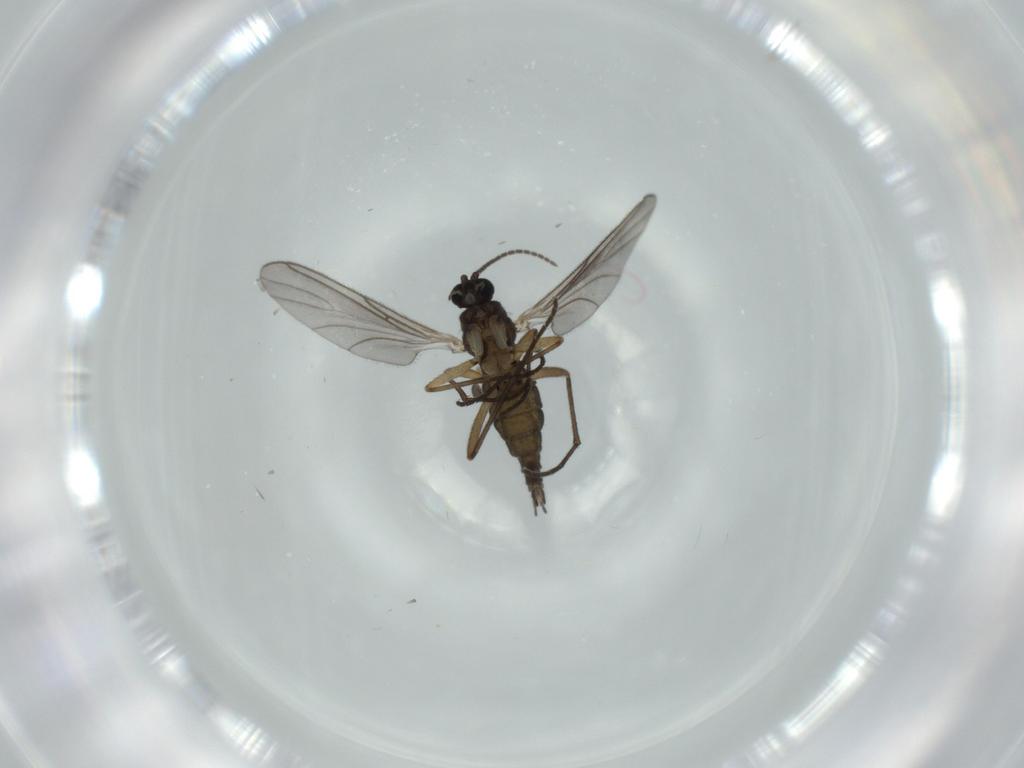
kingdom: Animalia
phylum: Arthropoda
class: Insecta
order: Diptera
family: Sciaridae
